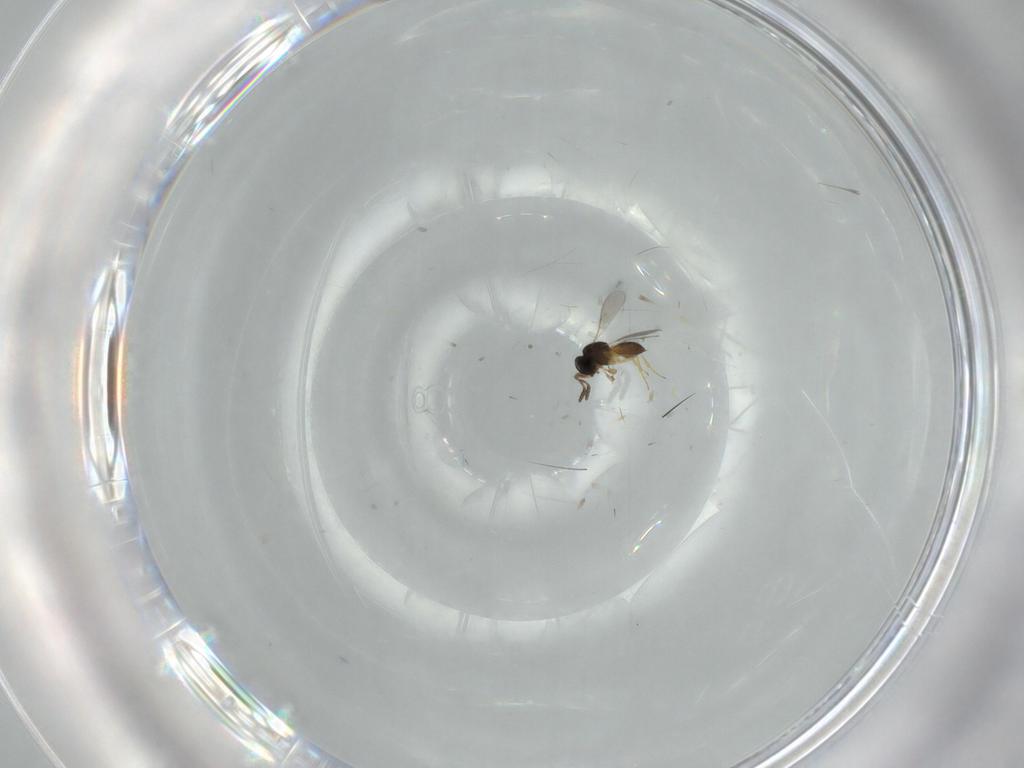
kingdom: Animalia
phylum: Arthropoda
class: Insecta
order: Hymenoptera
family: Scelionidae
